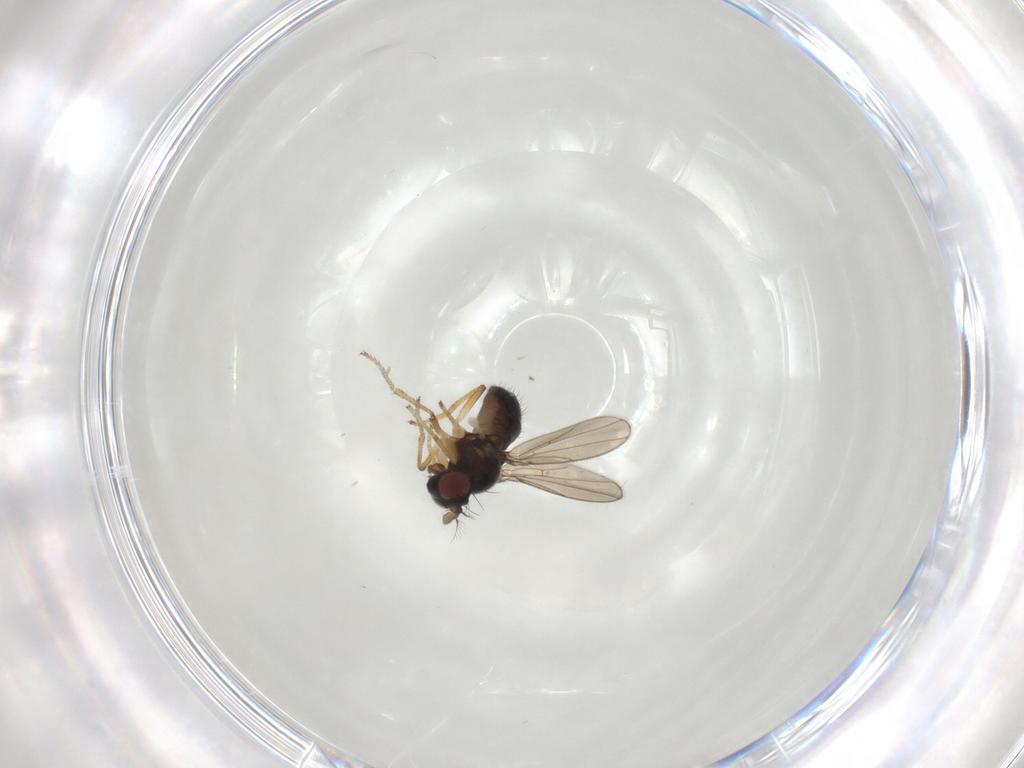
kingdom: Animalia
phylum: Arthropoda
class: Insecta
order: Diptera
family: Ephydridae
